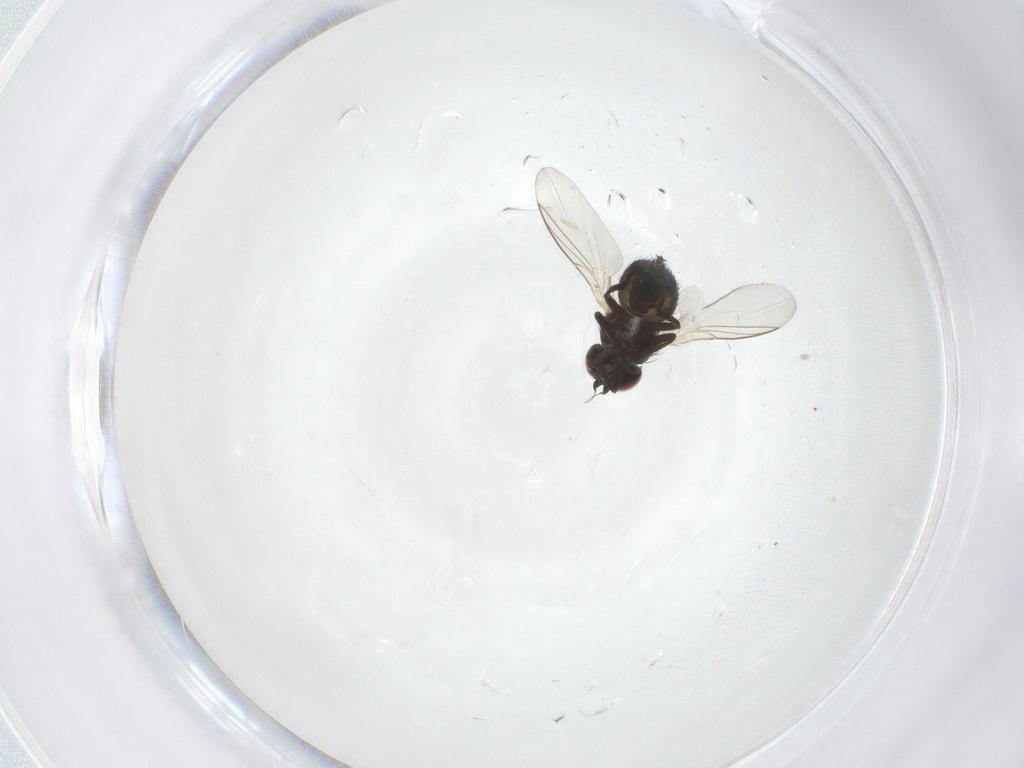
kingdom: Animalia
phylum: Arthropoda
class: Insecta
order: Diptera
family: Agromyzidae
